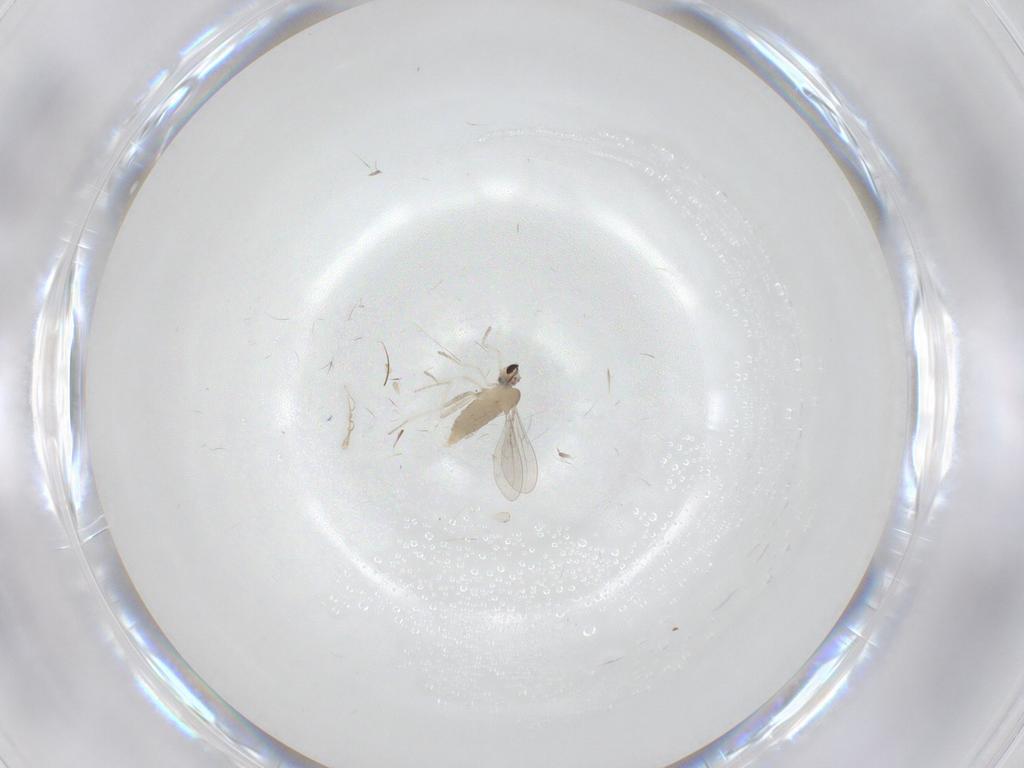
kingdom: Animalia
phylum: Arthropoda
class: Insecta
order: Diptera
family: Cecidomyiidae
